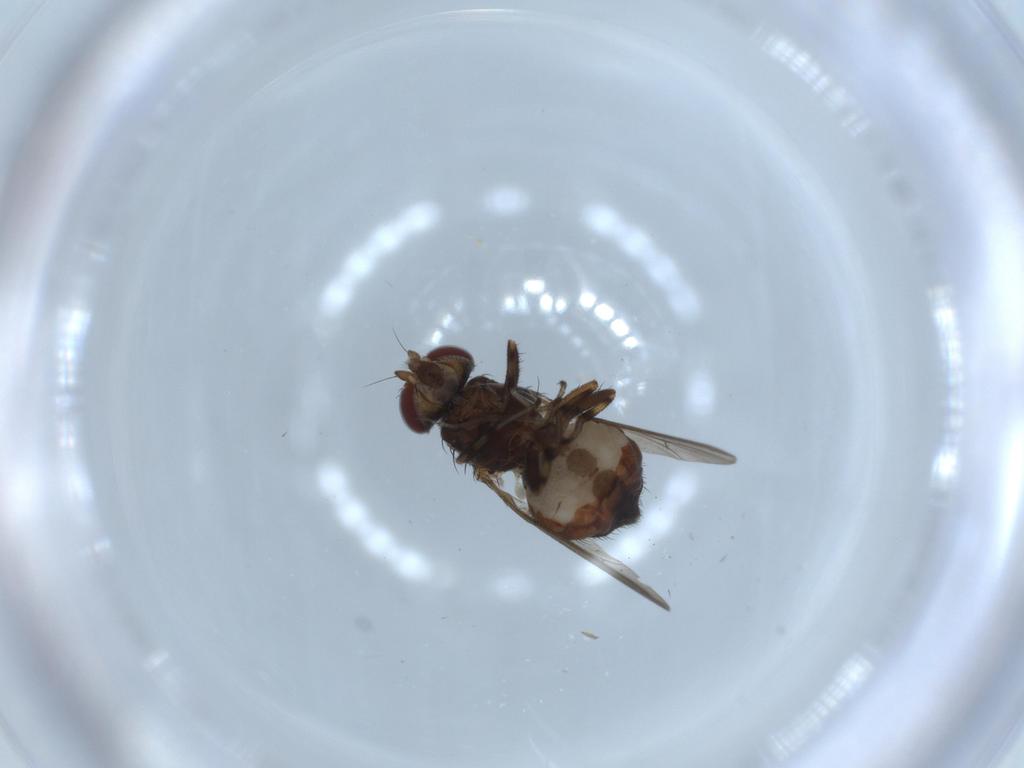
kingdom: Animalia
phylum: Arthropoda
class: Insecta
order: Diptera
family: Heleomyzidae
